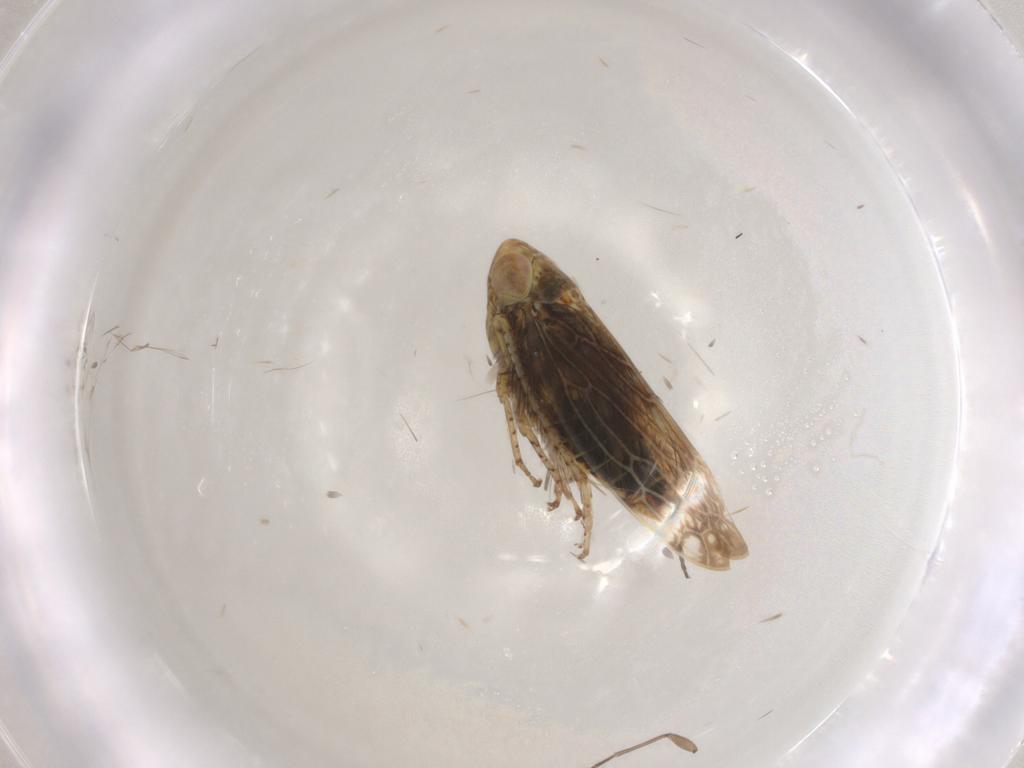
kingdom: Animalia
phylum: Arthropoda
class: Insecta
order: Hemiptera
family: Cicadellidae
